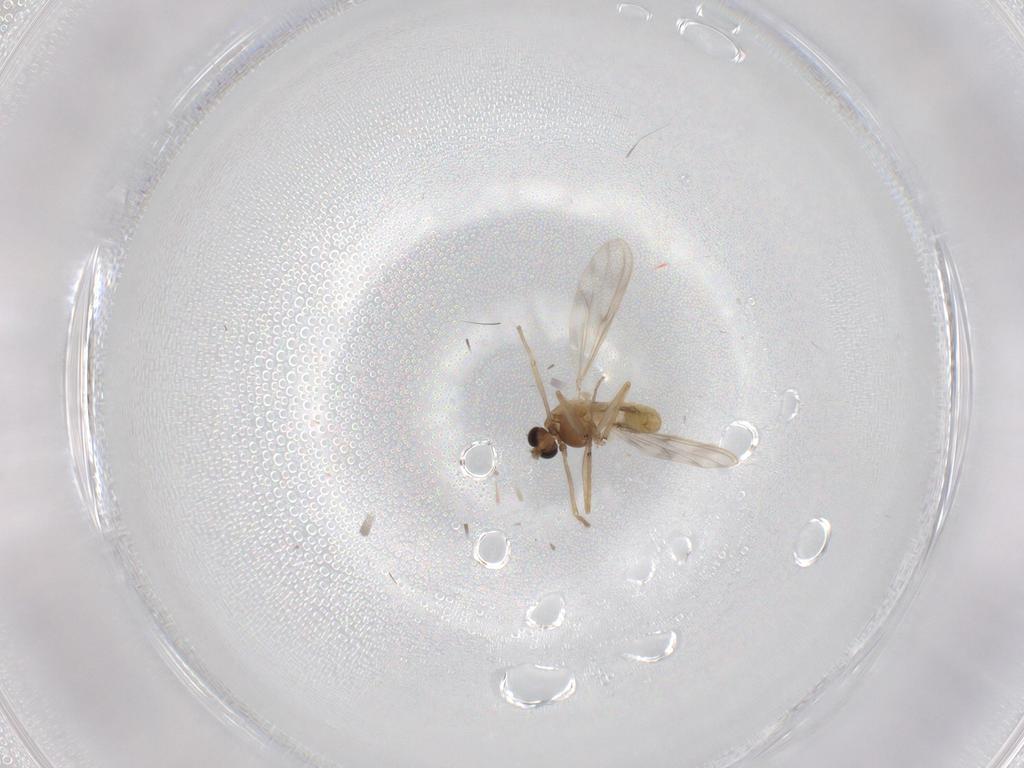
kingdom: Animalia
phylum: Arthropoda
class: Insecta
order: Diptera
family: Chironomidae
